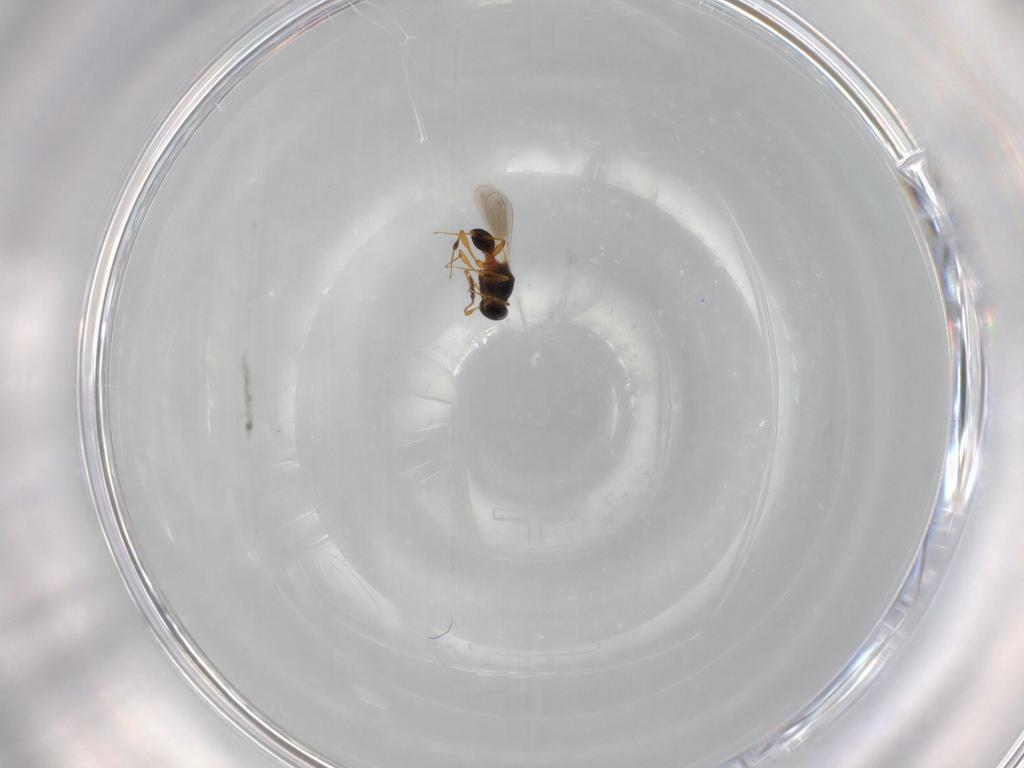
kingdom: Animalia
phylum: Arthropoda
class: Insecta
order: Hymenoptera
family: Platygastridae
